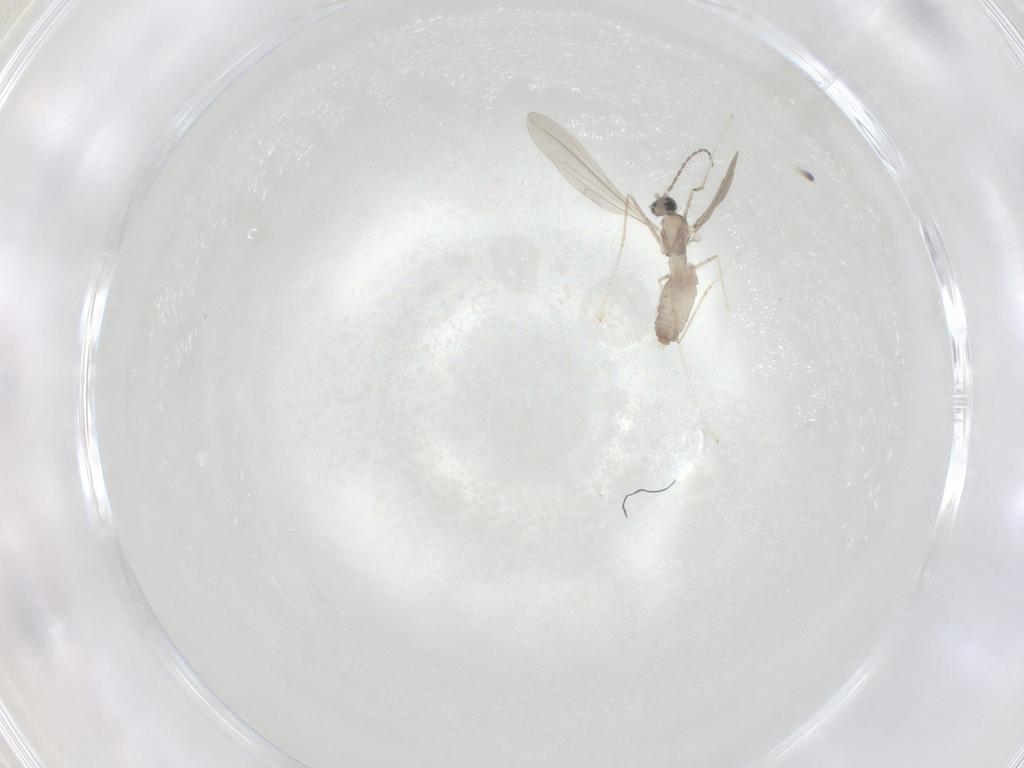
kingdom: Animalia
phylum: Arthropoda
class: Insecta
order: Diptera
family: Cecidomyiidae
